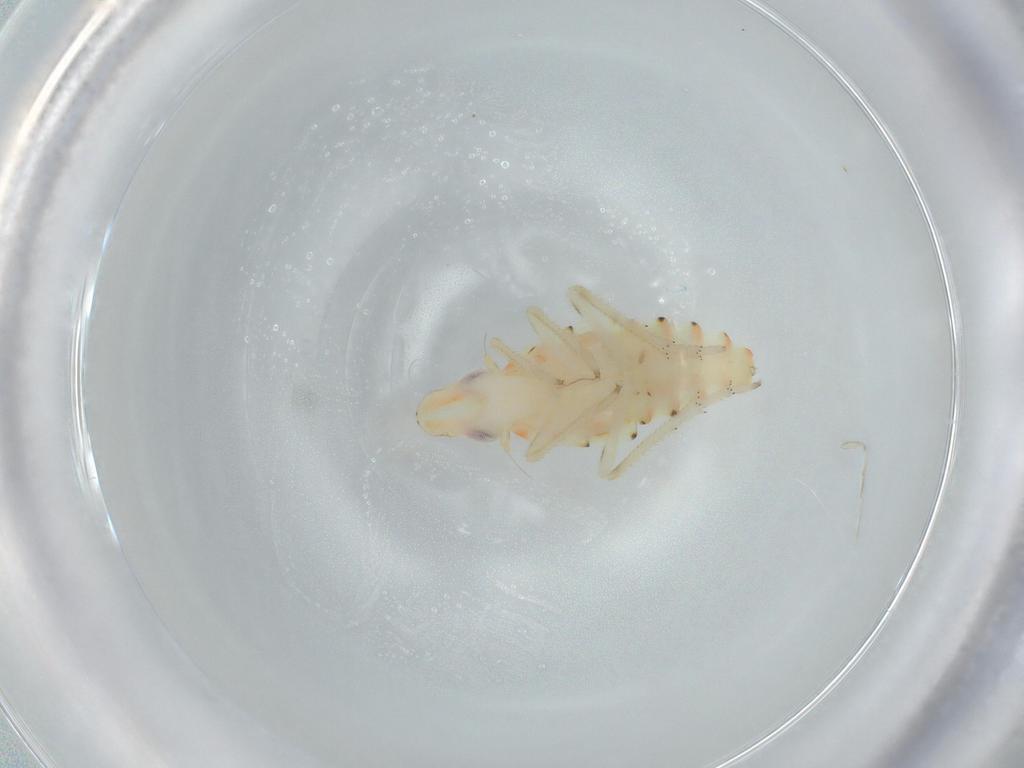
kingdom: Animalia
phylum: Arthropoda
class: Insecta
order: Hemiptera
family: Tropiduchidae
